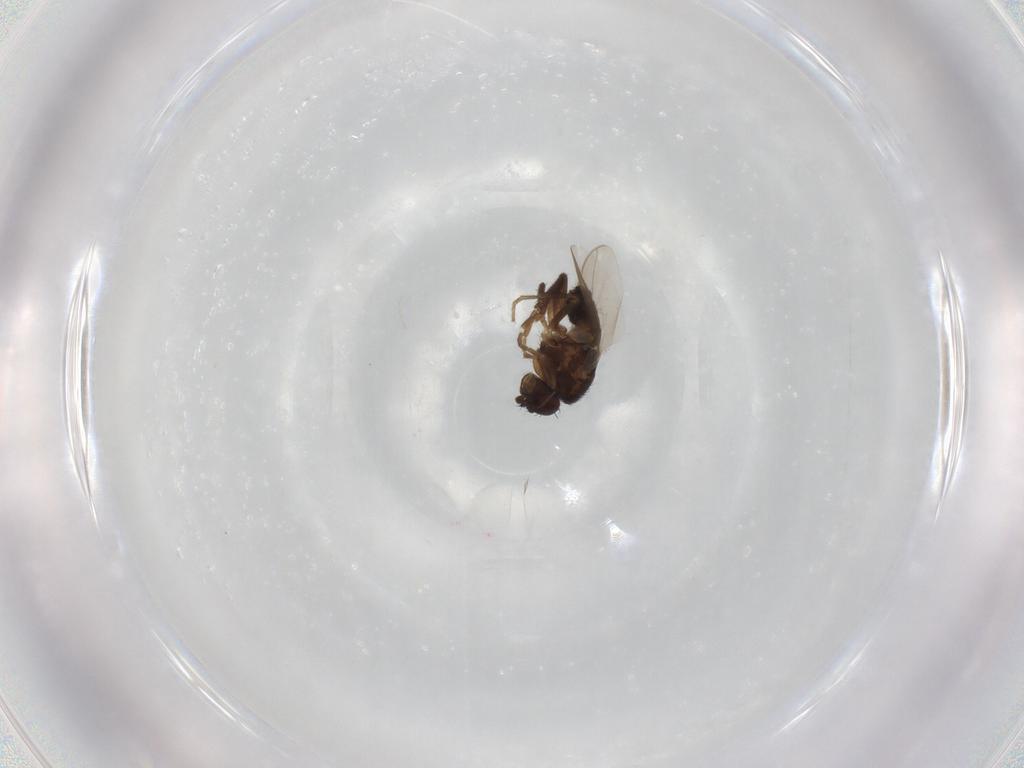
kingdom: Animalia
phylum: Arthropoda
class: Insecta
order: Diptera
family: Sphaeroceridae
